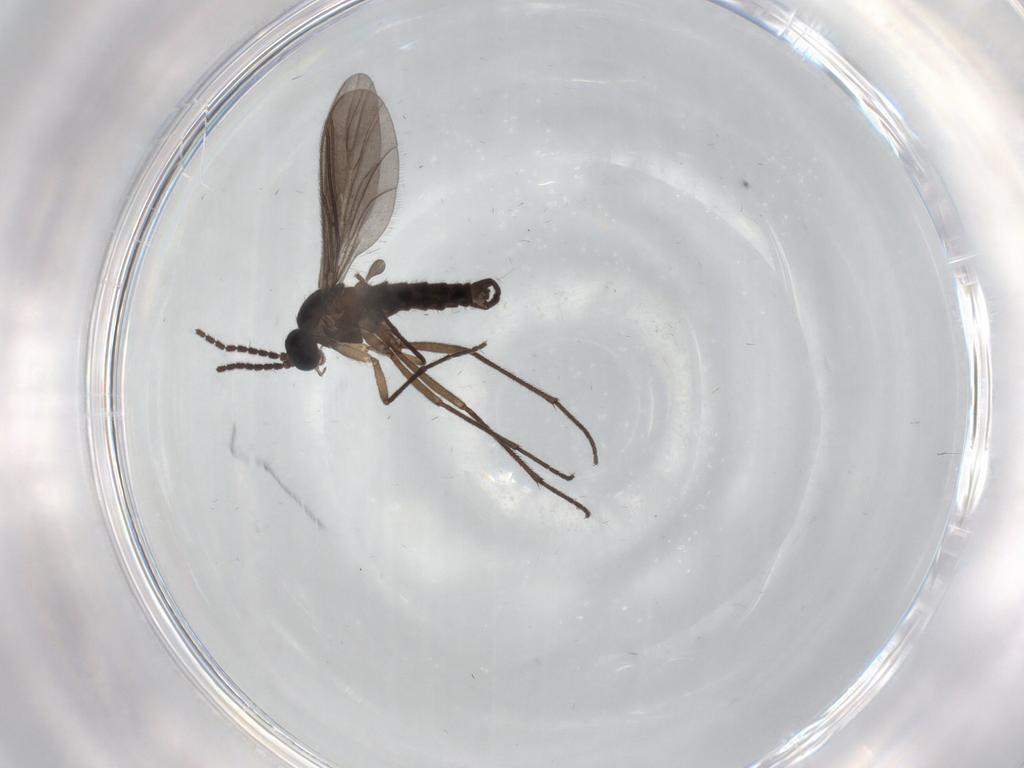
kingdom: Animalia
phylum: Arthropoda
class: Insecta
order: Diptera
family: Sciaridae
